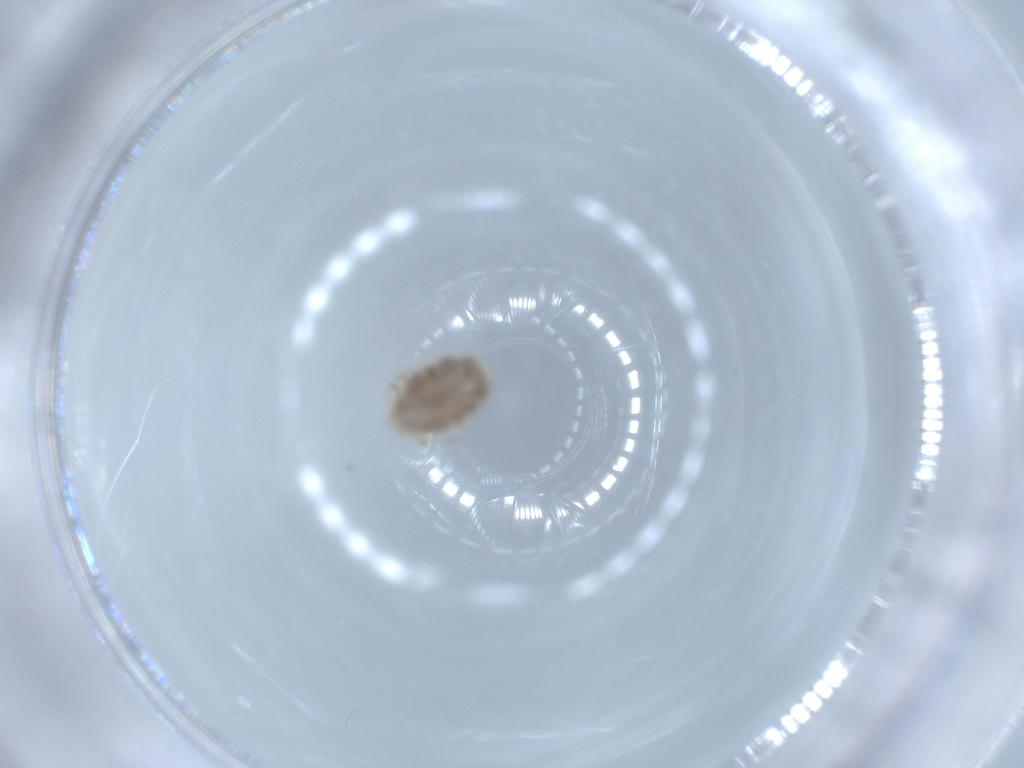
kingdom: Animalia
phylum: Arthropoda
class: Arachnida
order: Trombidiformes
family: Erythraeidae
